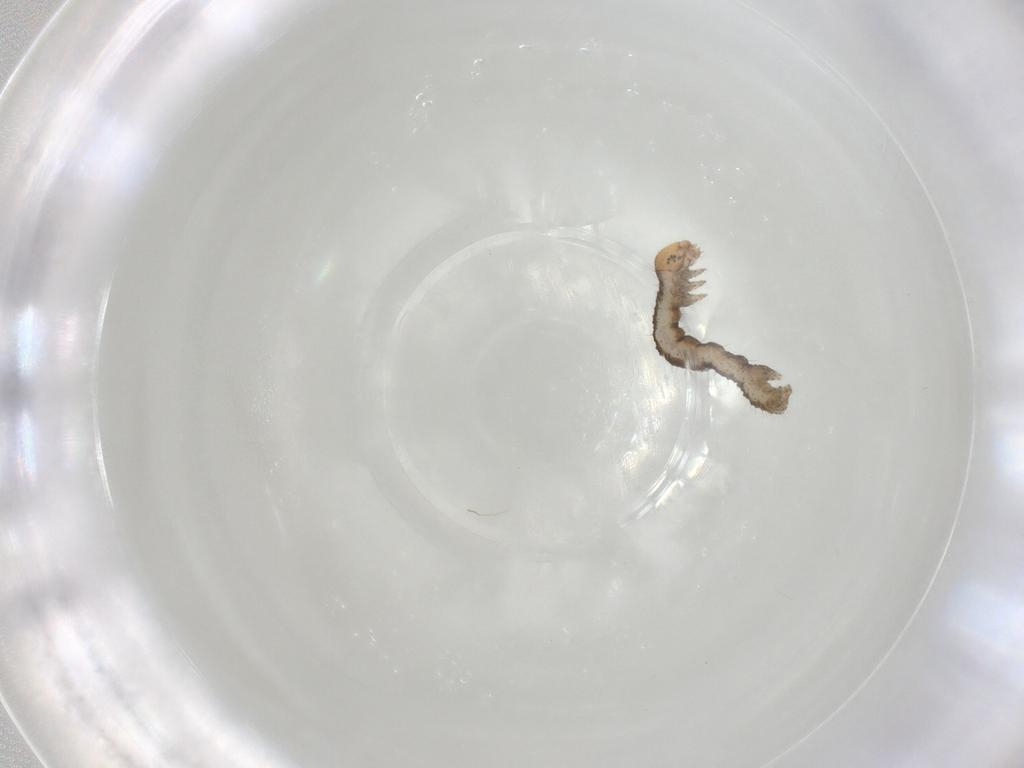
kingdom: Animalia
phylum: Arthropoda
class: Insecta
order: Lepidoptera
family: Geometridae
